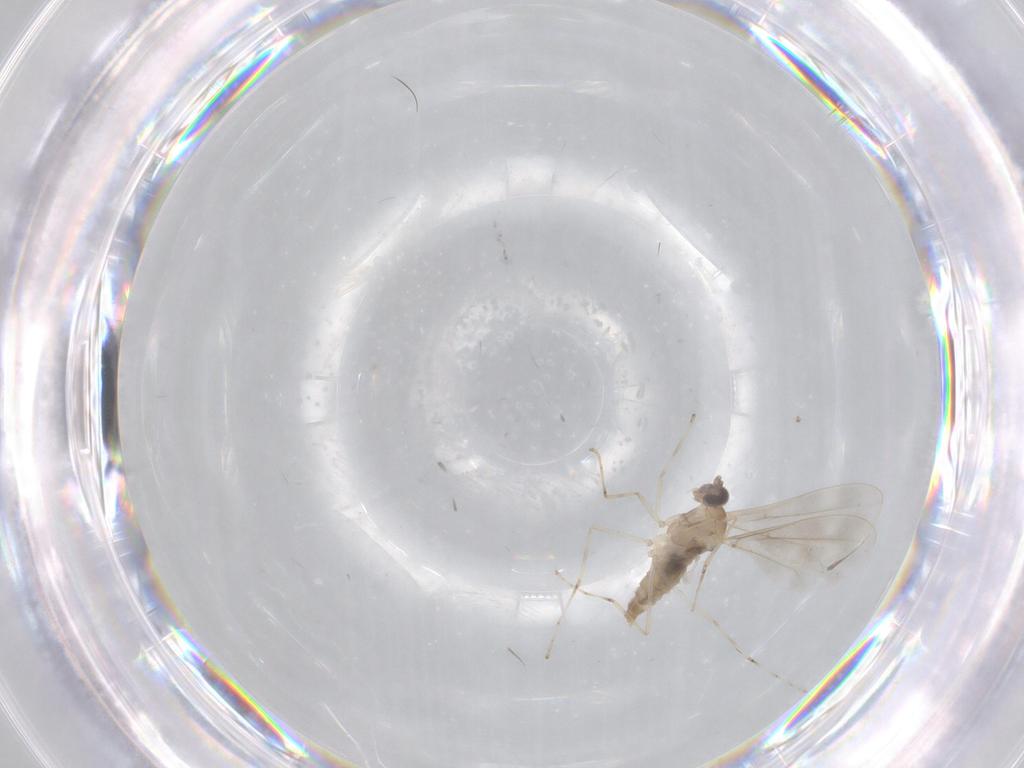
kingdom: Animalia
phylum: Arthropoda
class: Insecta
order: Diptera
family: Cecidomyiidae
